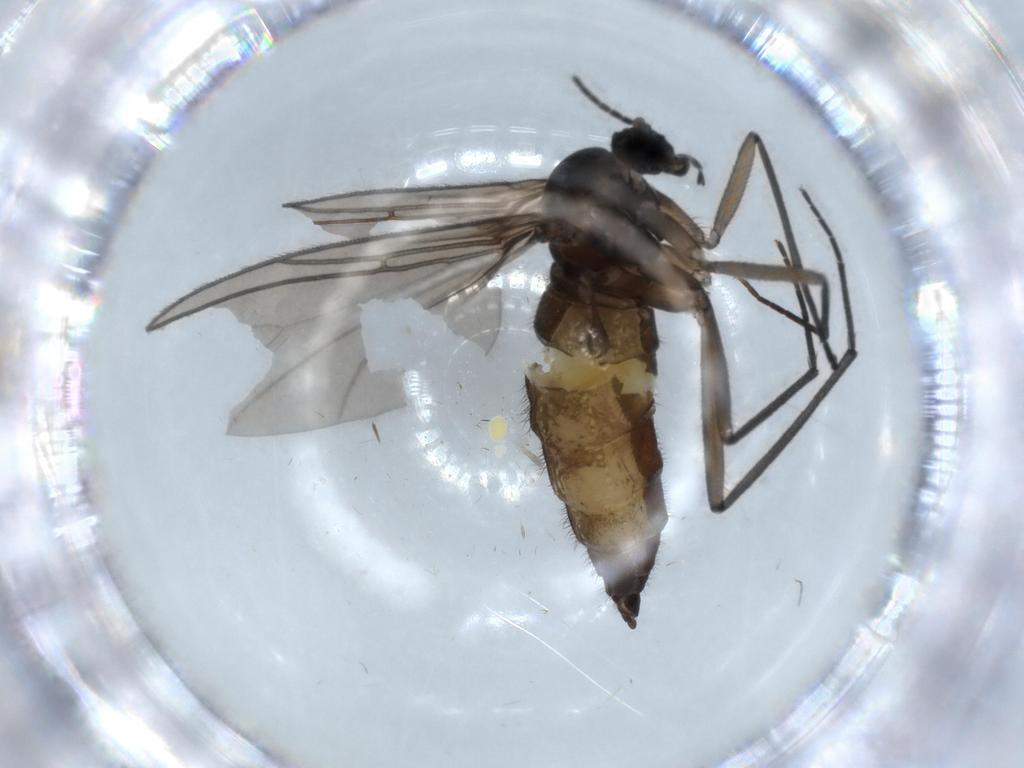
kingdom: Animalia
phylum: Arthropoda
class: Insecta
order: Diptera
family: Sciaridae
